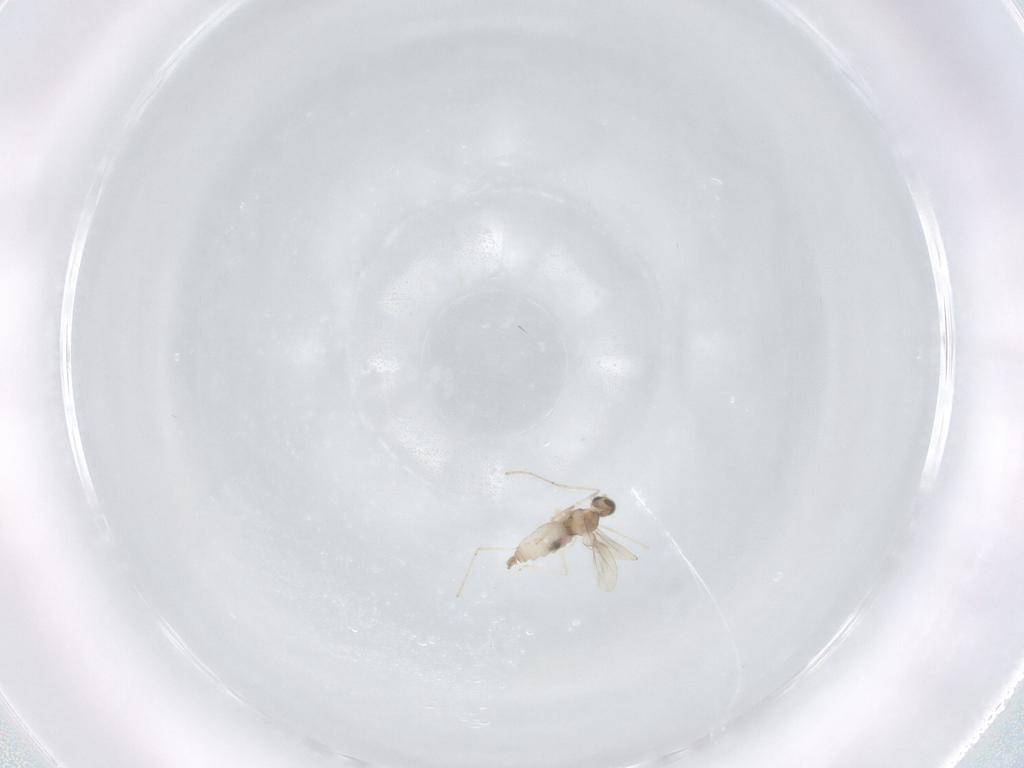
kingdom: Animalia
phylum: Arthropoda
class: Insecta
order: Diptera
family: Cecidomyiidae
